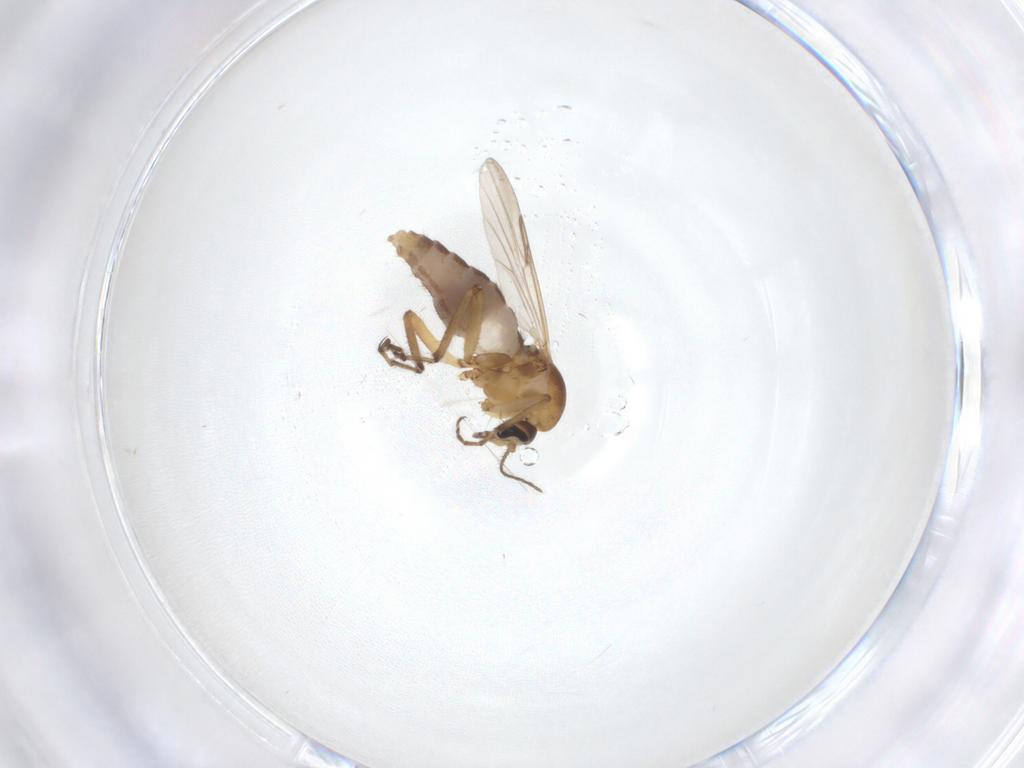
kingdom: Animalia
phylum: Arthropoda
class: Insecta
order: Diptera
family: Ceratopogonidae
